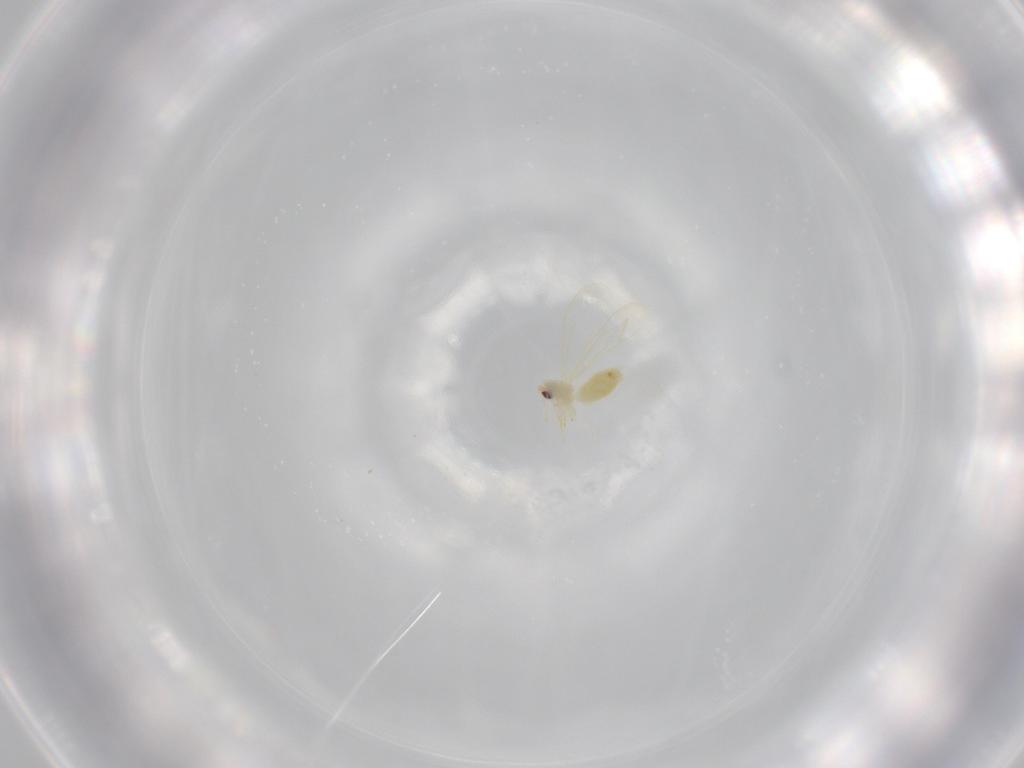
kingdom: Animalia
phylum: Arthropoda
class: Insecta
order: Hemiptera
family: Aleyrodidae
